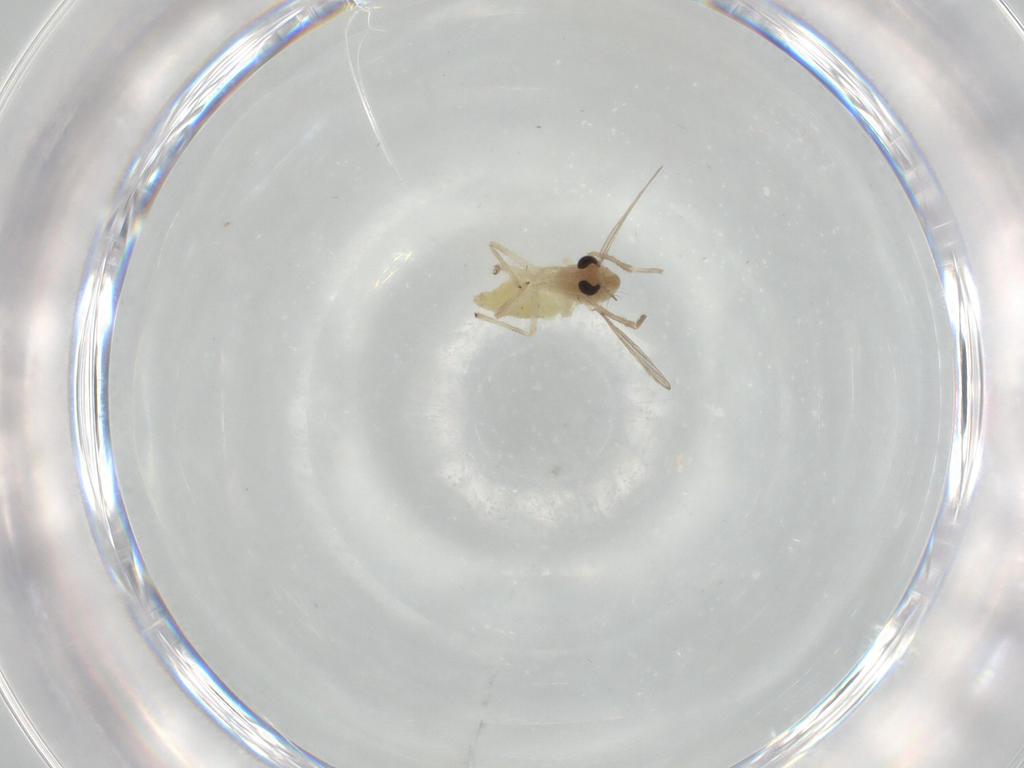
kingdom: Animalia
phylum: Arthropoda
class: Insecta
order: Diptera
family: Chironomidae
